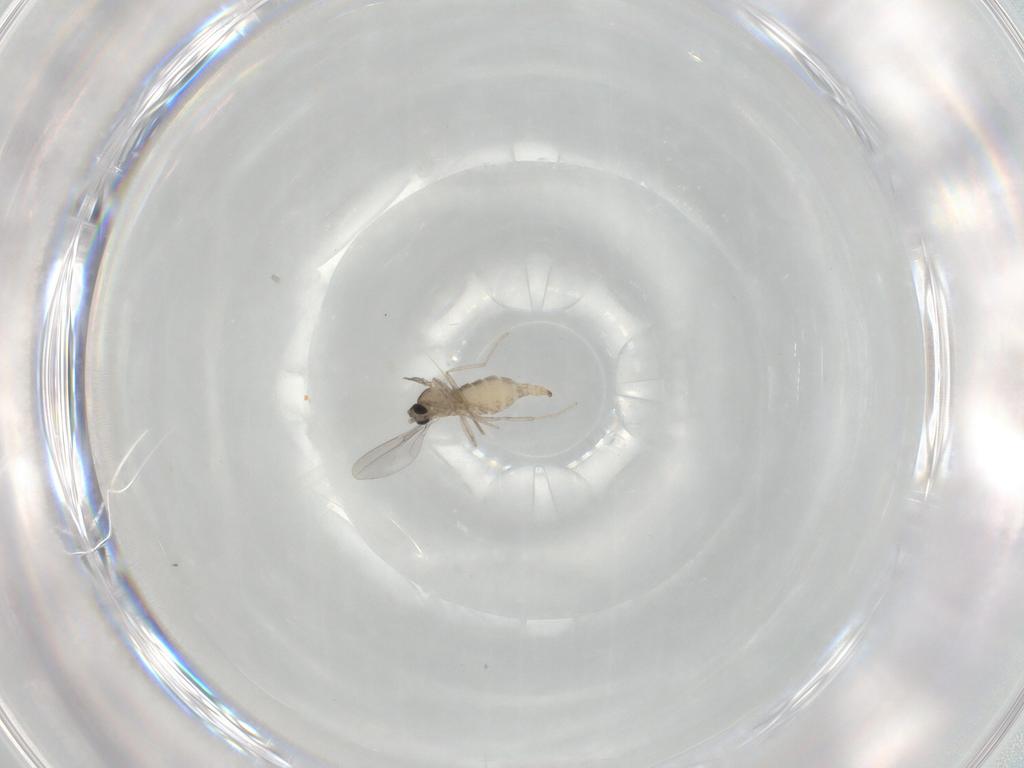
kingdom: Animalia
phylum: Arthropoda
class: Insecta
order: Diptera
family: Cecidomyiidae
